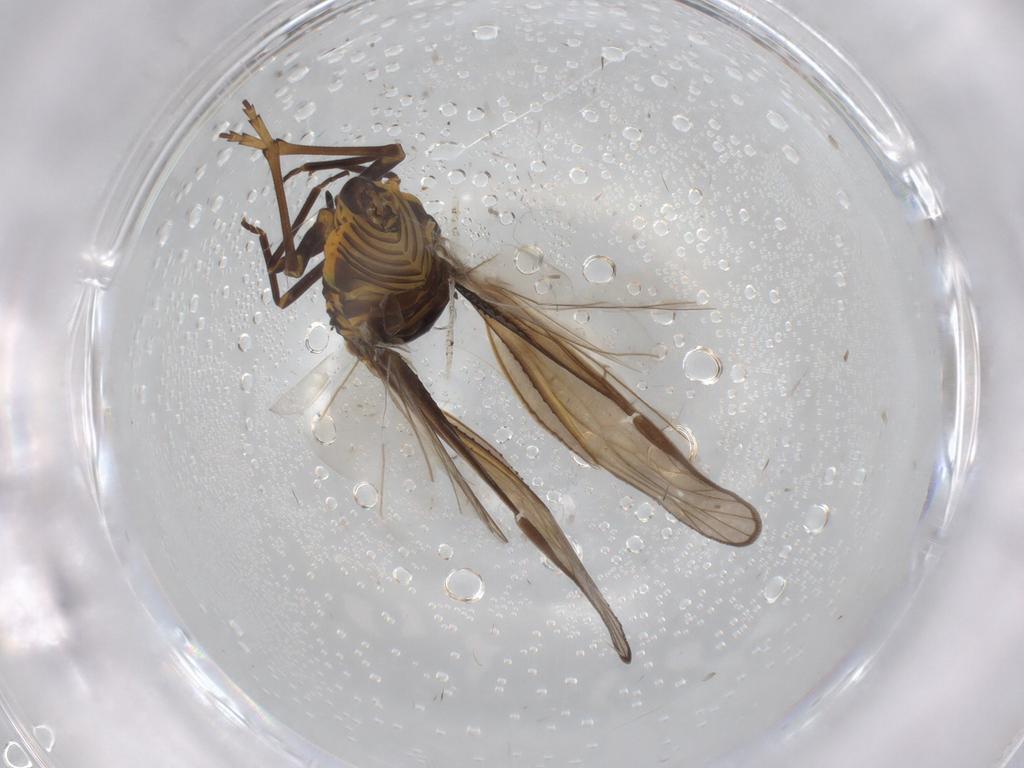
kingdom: Animalia
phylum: Arthropoda
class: Insecta
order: Hemiptera
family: Meenoplidae
